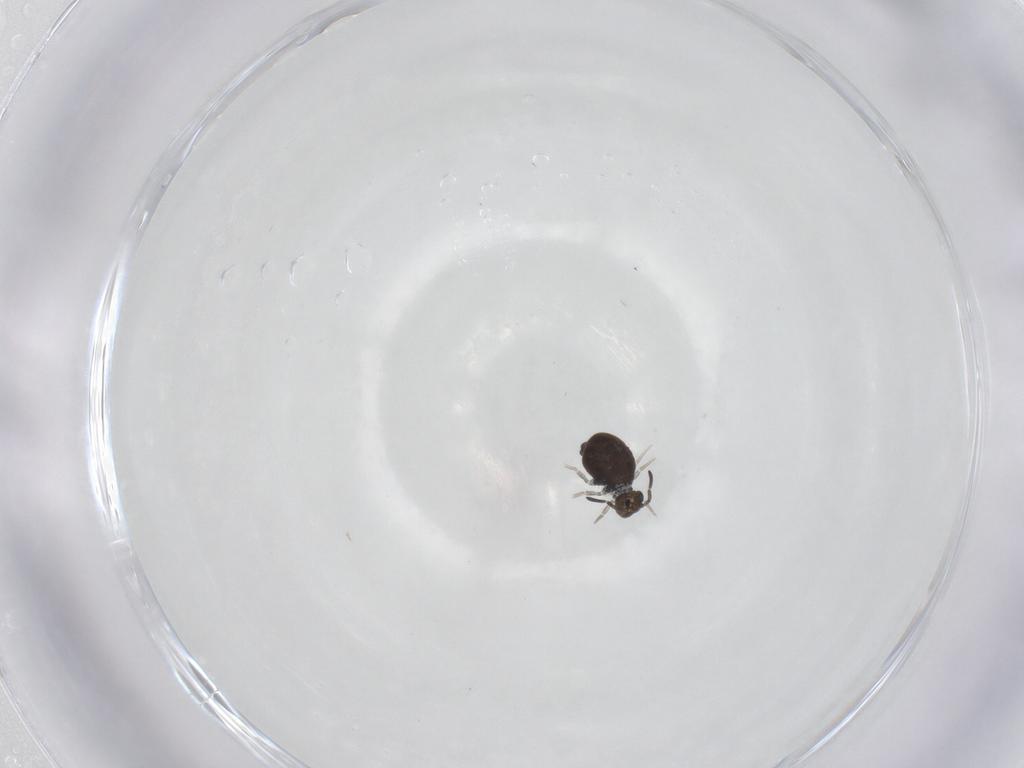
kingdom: Animalia
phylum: Arthropoda
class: Collembola
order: Symphypleona
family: Katiannidae
